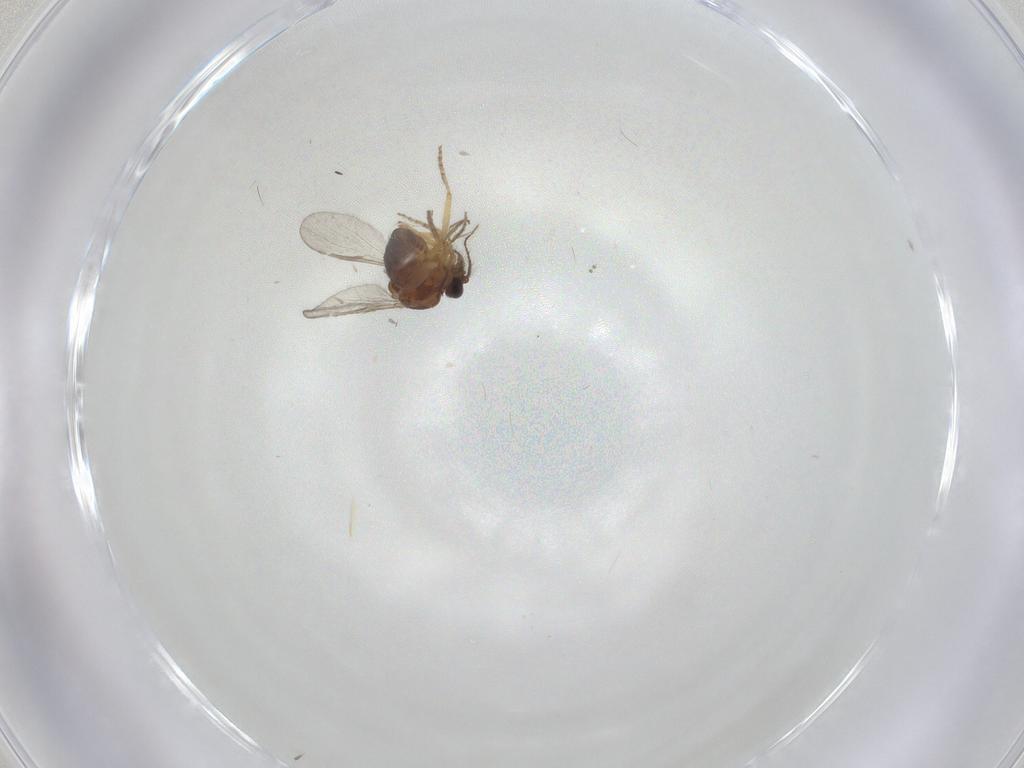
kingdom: Animalia
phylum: Arthropoda
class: Insecta
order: Diptera
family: Ceratopogonidae
